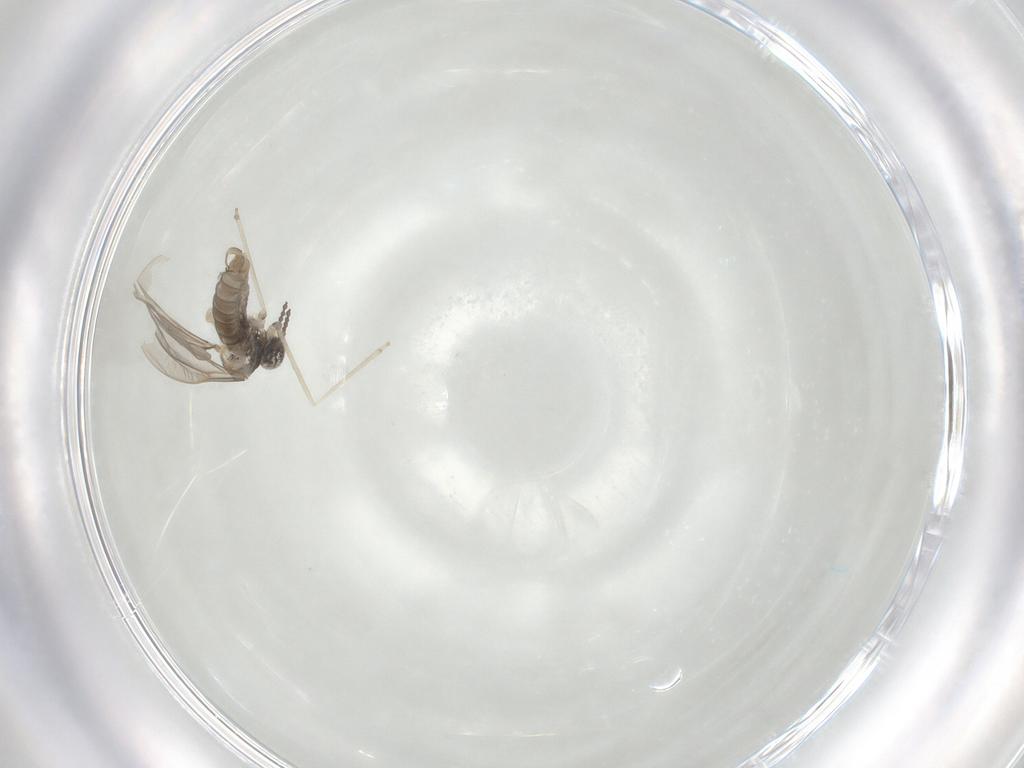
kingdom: Animalia
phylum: Arthropoda
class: Insecta
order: Diptera
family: Cecidomyiidae
